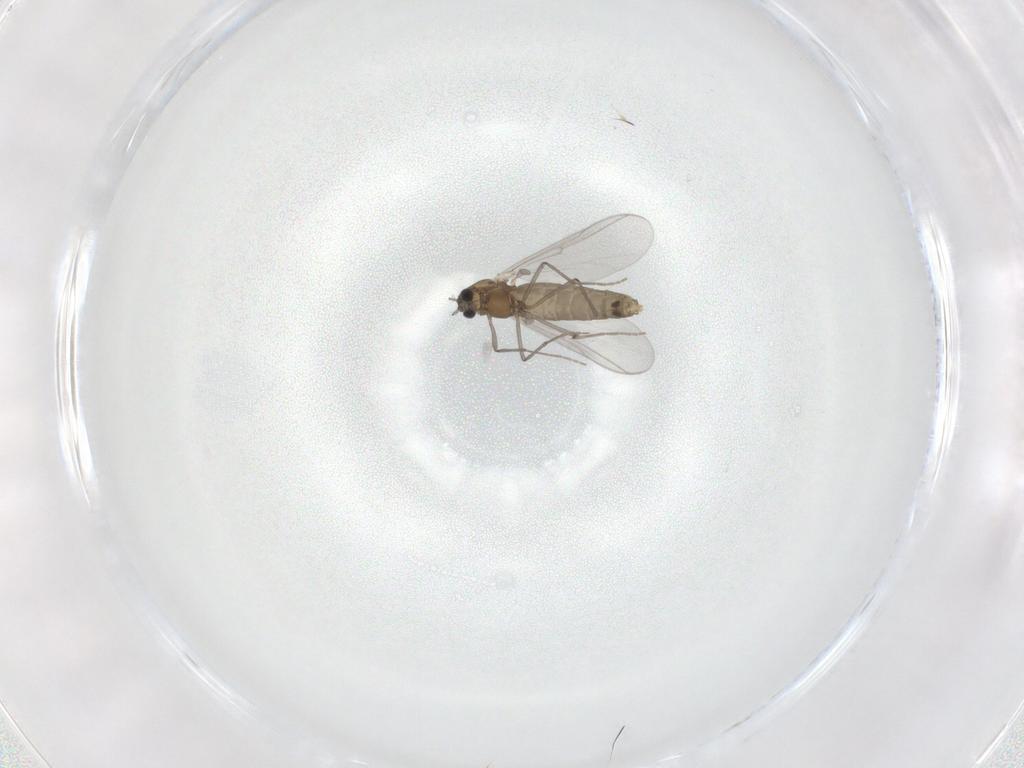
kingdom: Animalia
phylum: Arthropoda
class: Insecta
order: Diptera
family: Chironomidae
